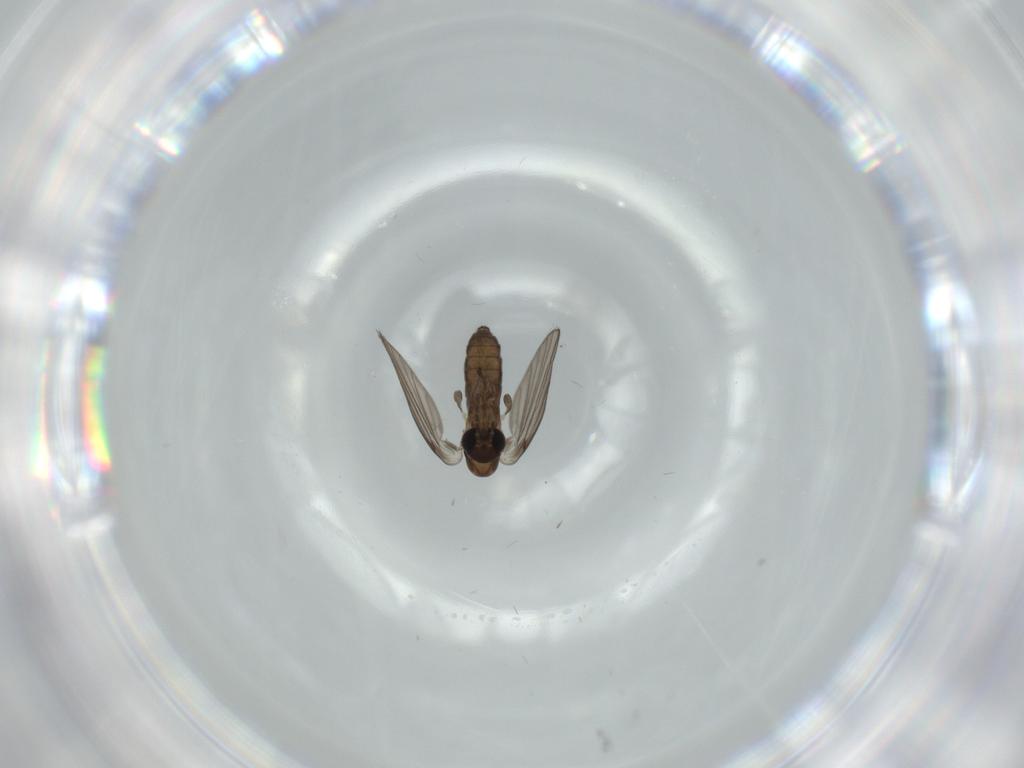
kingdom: Animalia
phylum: Arthropoda
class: Insecta
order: Diptera
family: Psychodidae
